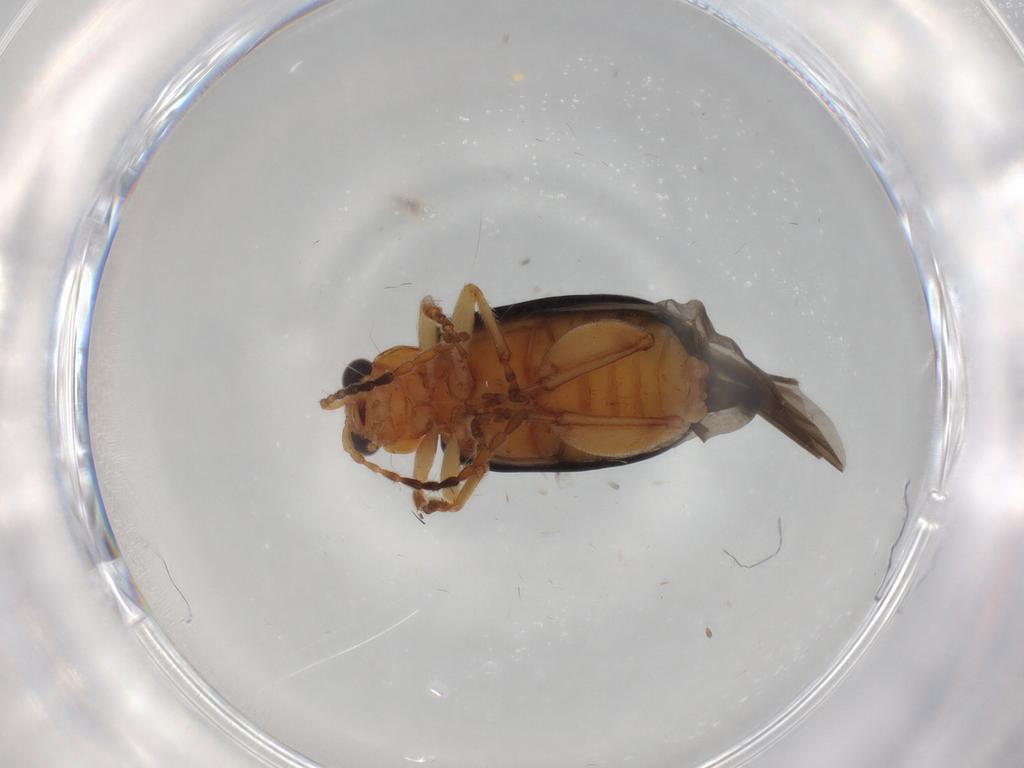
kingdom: Animalia
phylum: Arthropoda
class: Insecta
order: Coleoptera
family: Chrysomelidae
